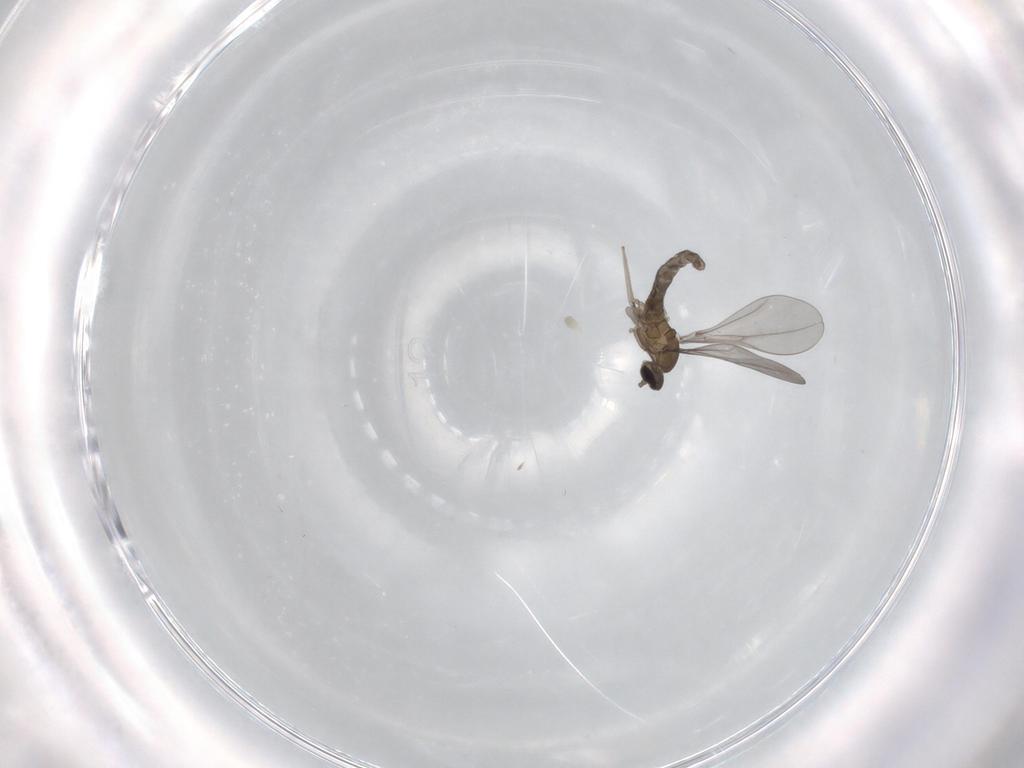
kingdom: Animalia
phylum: Arthropoda
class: Insecta
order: Diptera
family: Cecidomyiidae
